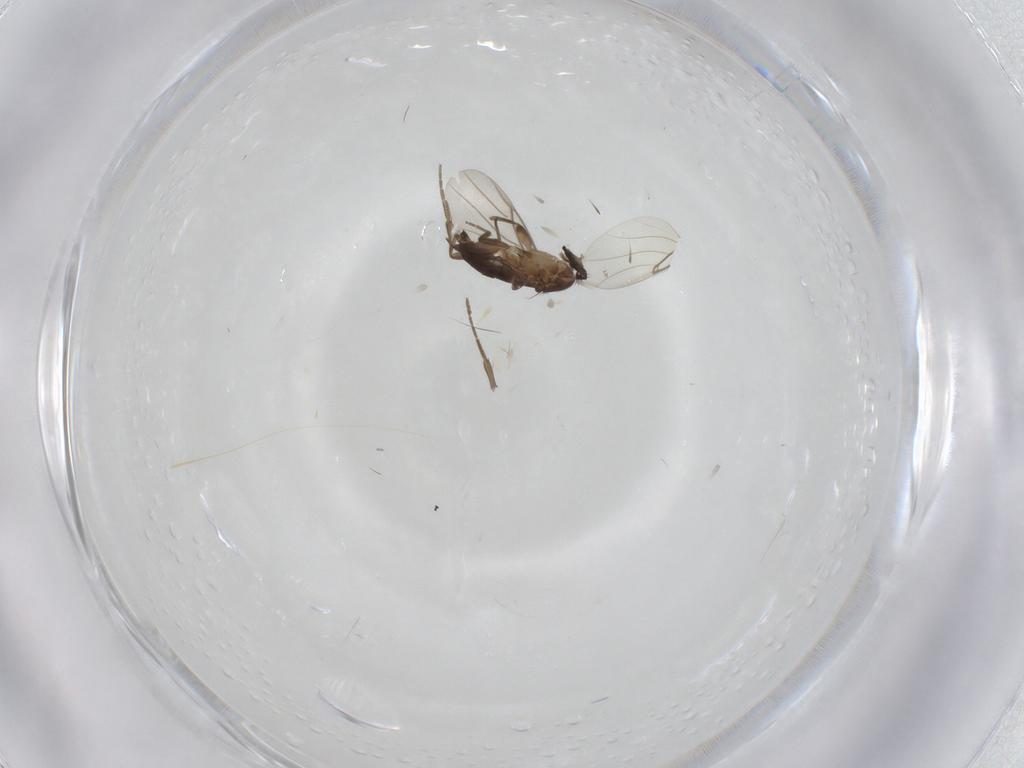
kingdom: Animalia
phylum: Arthropoda
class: Insecta
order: Diptera
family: Phoridae
